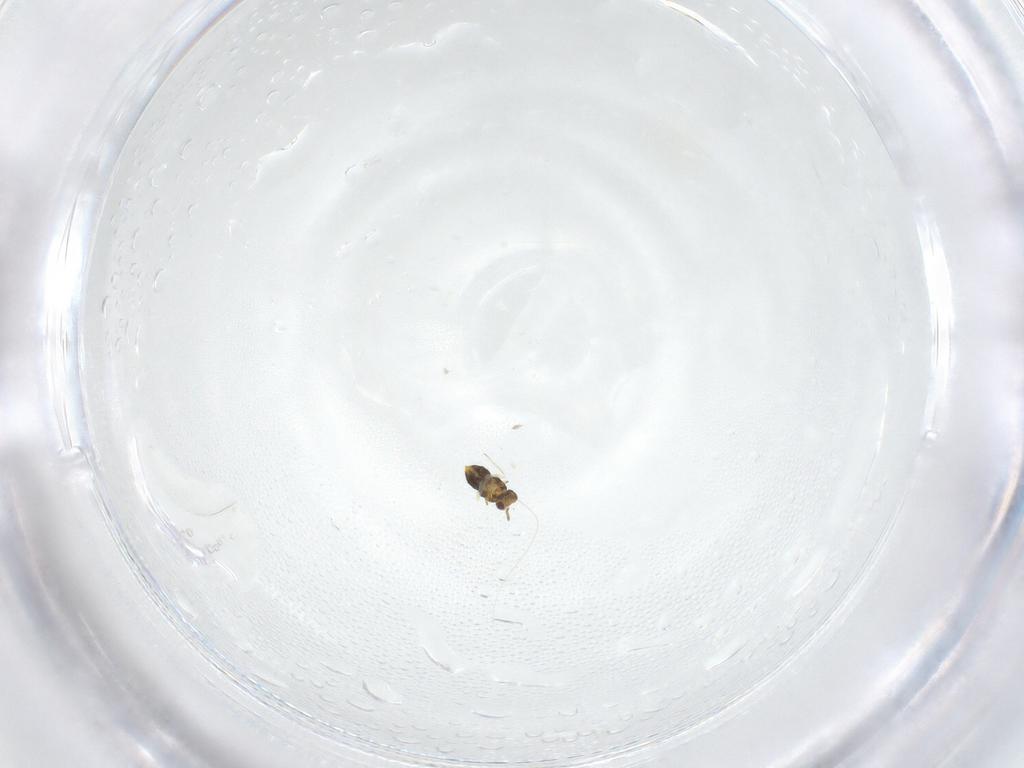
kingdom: Animalia
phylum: Arthropoda
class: Insecta
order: Hymenoptera
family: Aphelinidae
